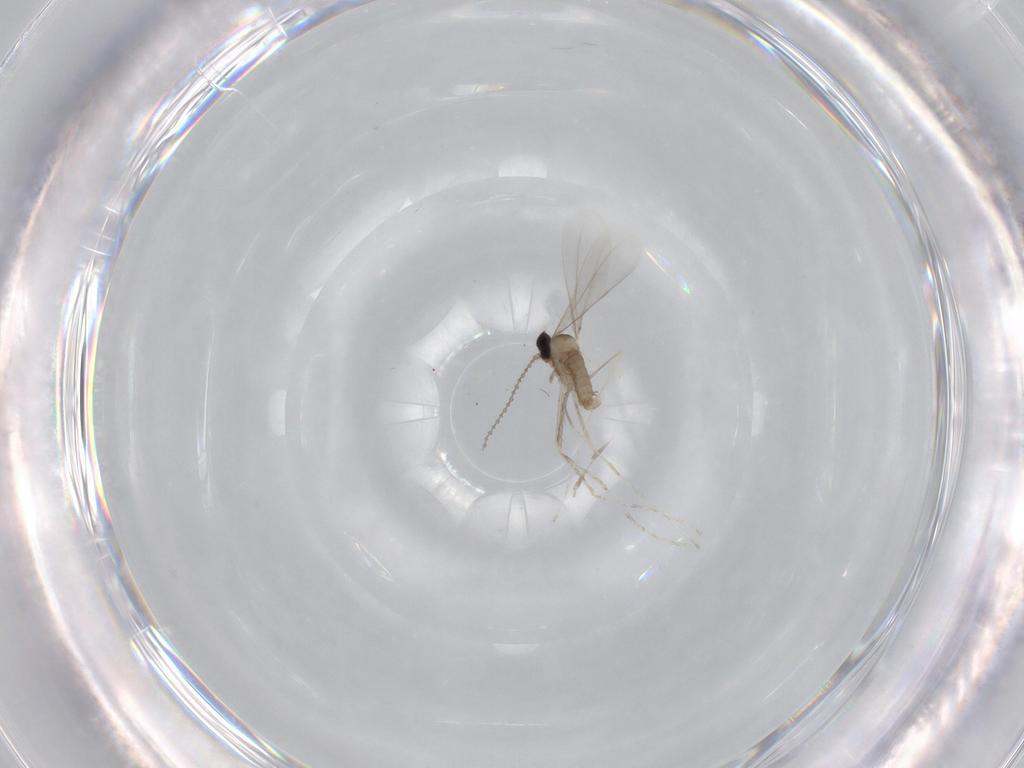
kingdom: Animalia
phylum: Arthropoda
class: Insecta
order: Diptera
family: Cecidomyiidae
